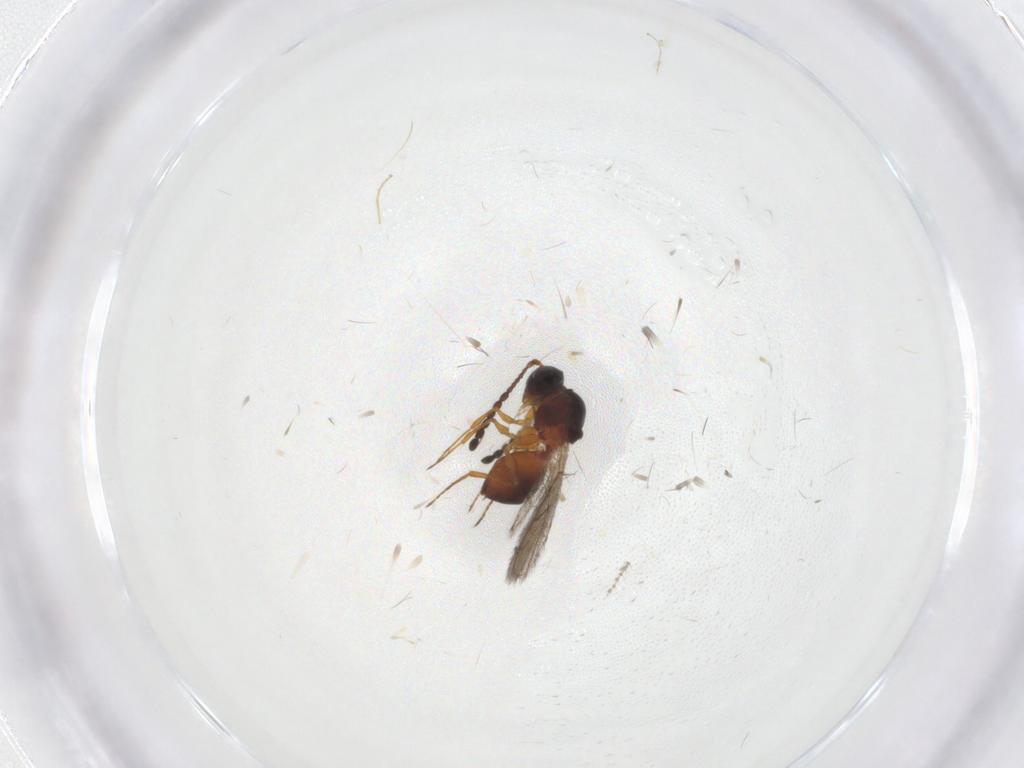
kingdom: Animalia
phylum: Arthropoda
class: Insecta
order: Hymenoptera
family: Figitidae
